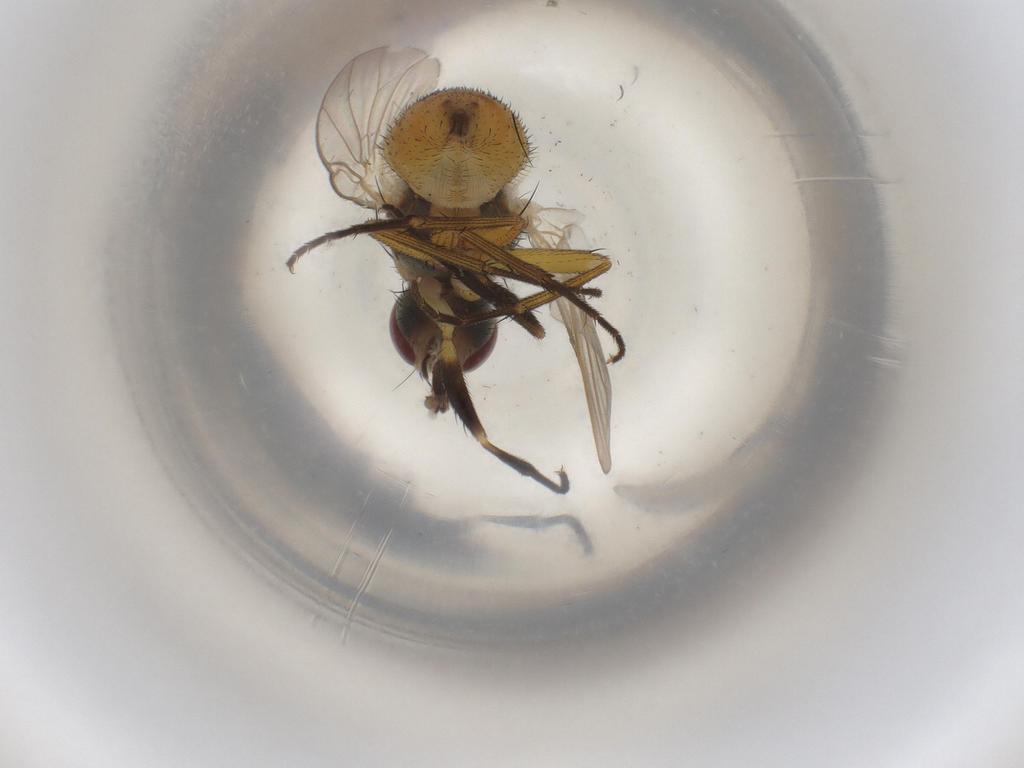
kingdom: Animalia
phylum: Arthropoda
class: Insecta
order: Diptera
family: Muscidae
